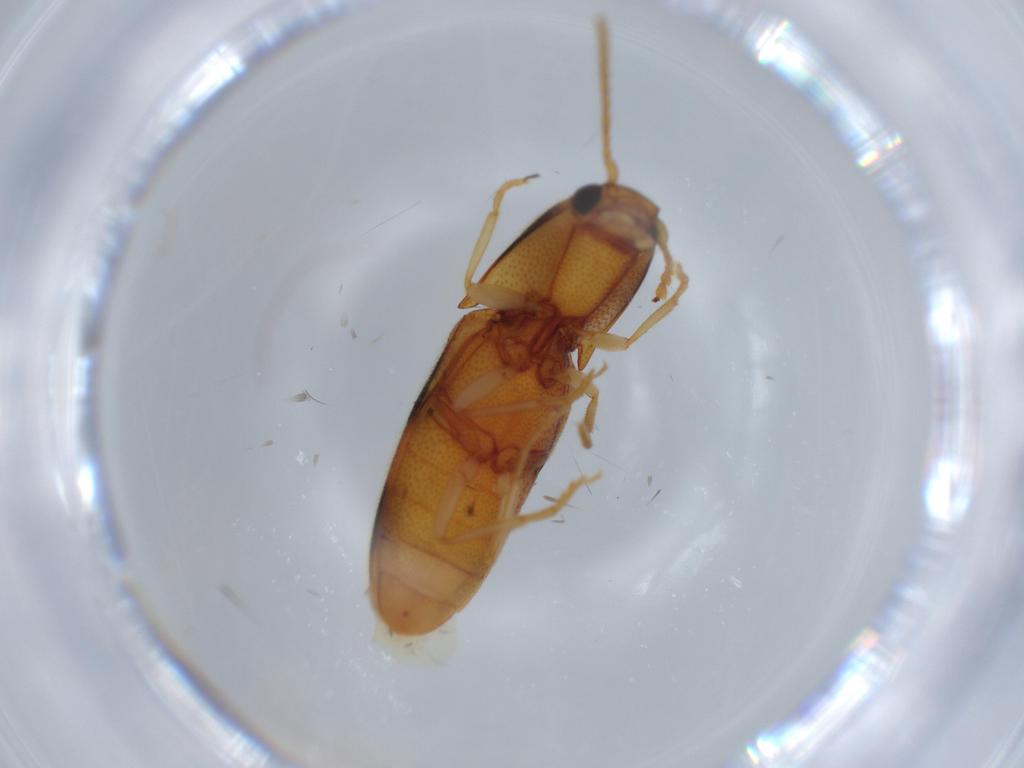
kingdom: Animalia
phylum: Arthropoda
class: Insecta
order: Coleoptera
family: Elateridae
